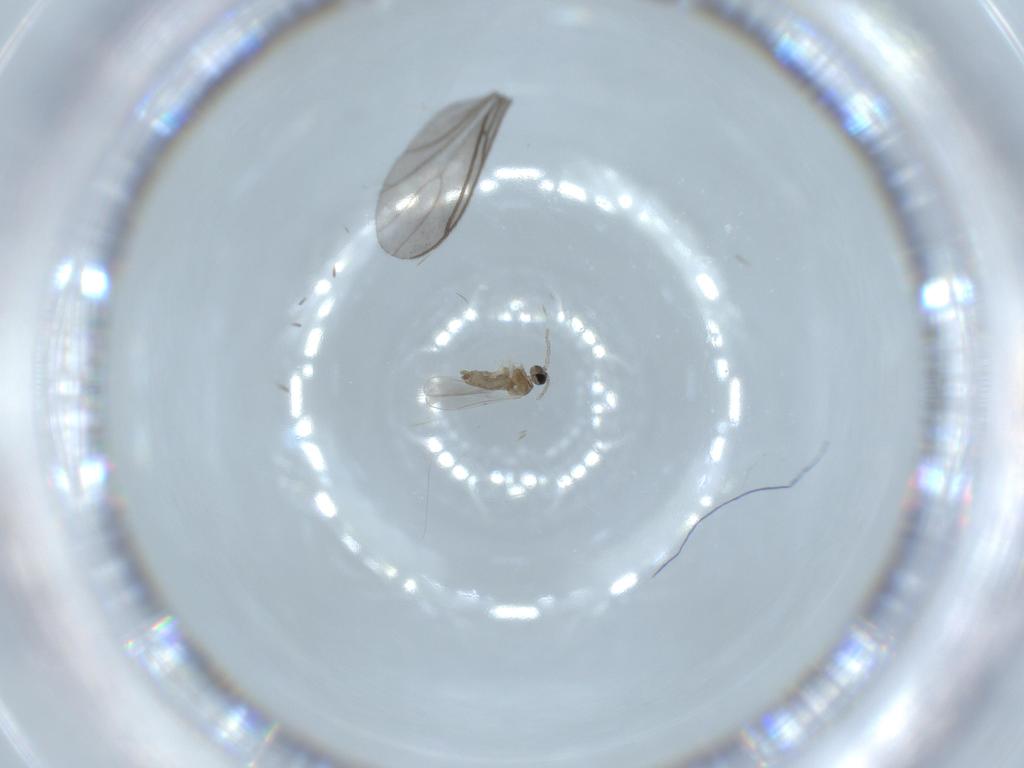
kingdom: Animalia
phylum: Arthropoda
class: Insecta
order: Diptera
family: Cecidomyiidae
